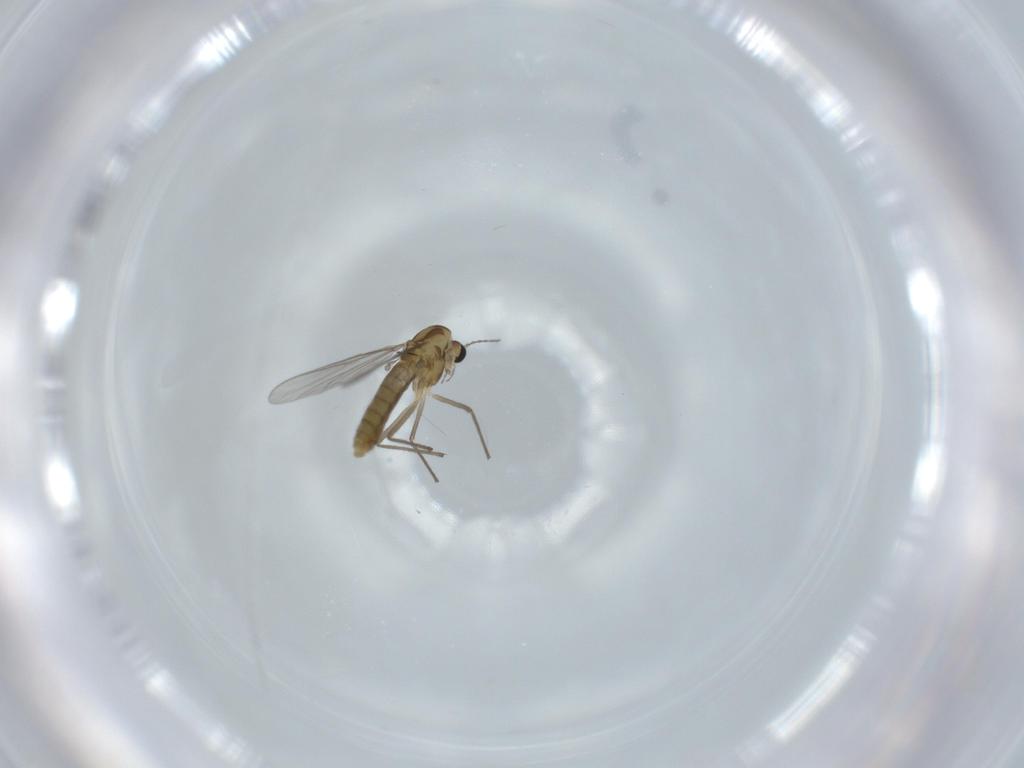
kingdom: Animalia
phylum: Arthropoda
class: Insecta
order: Diptera
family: Chironomidae
